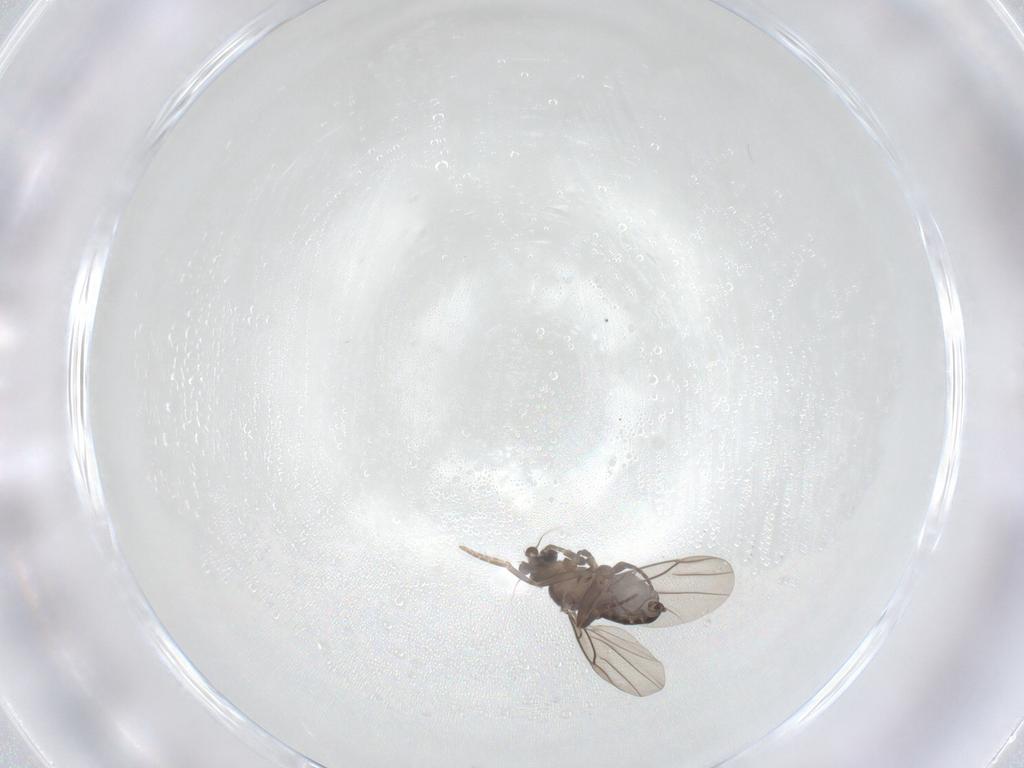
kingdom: Animalia
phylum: Arthropoda
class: Insecta
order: Diptera
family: Athericidae
